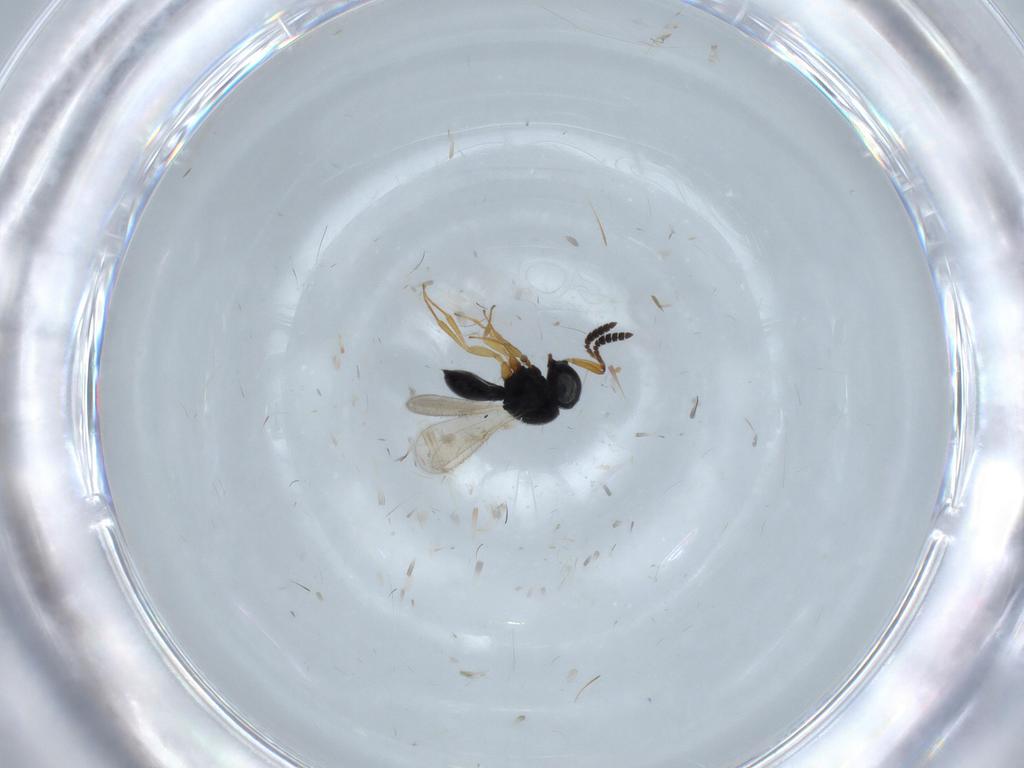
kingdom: Animalia
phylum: Arthropoda
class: Insecta
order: Hymenoptera
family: Scelionidae
